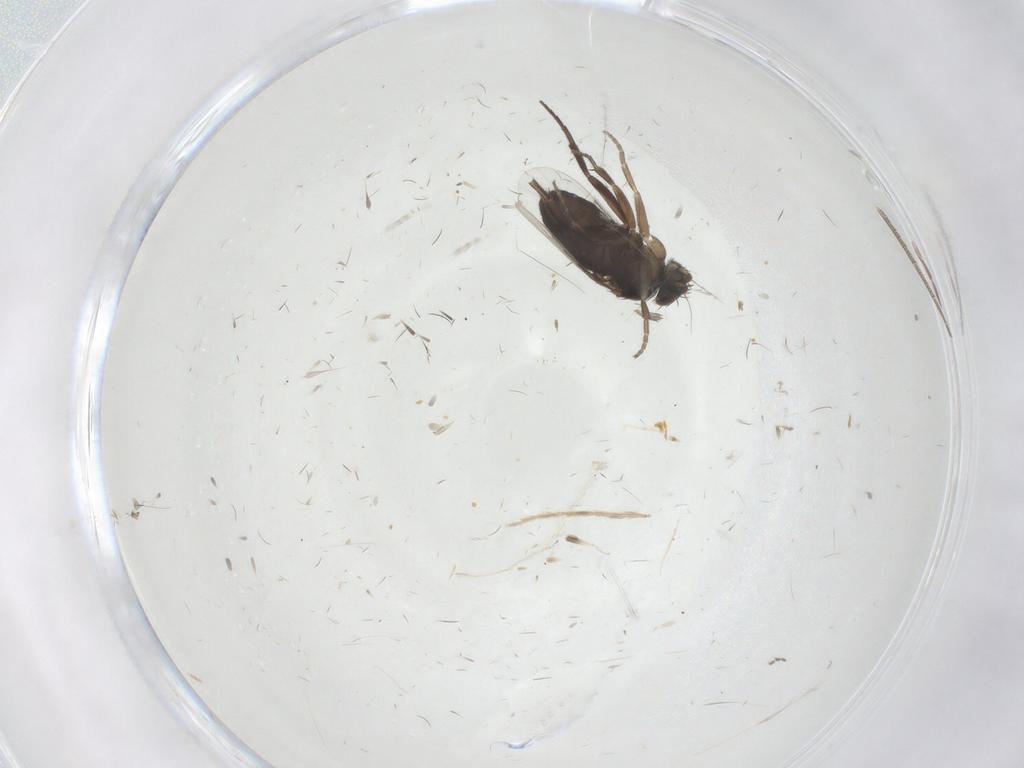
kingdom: Animalia
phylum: Arthropoda
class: Insecta
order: Diptera
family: Phoridae
